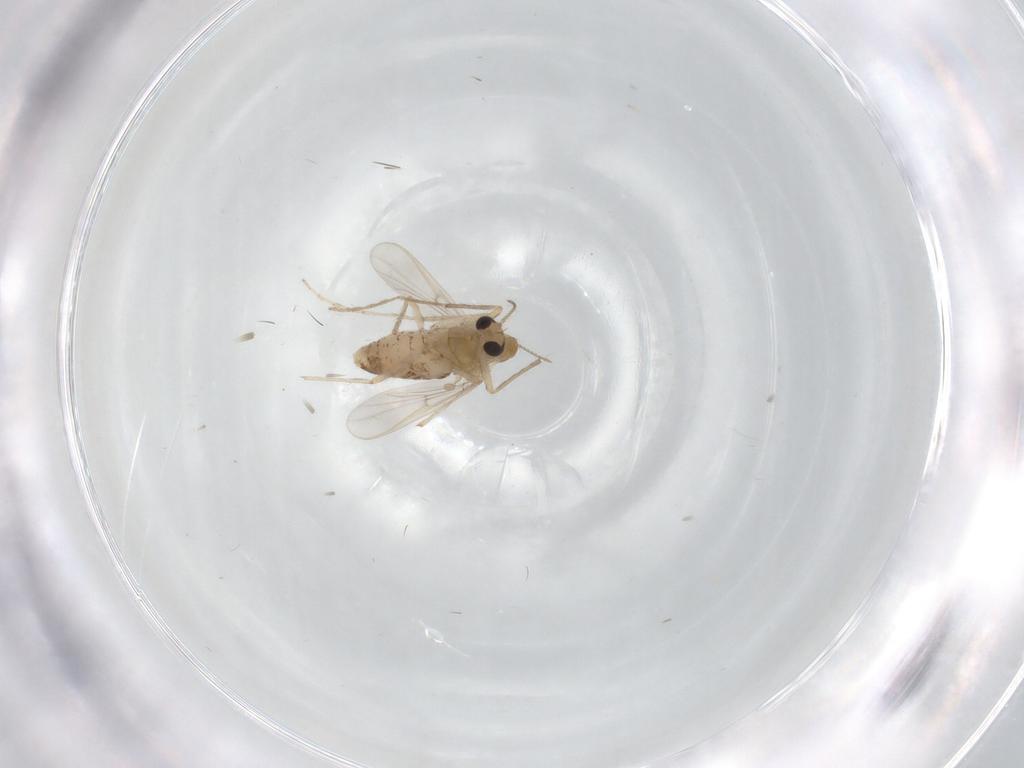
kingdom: Animalia
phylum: Arthropoda
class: Insecta
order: Diptera
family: Chironomidae
